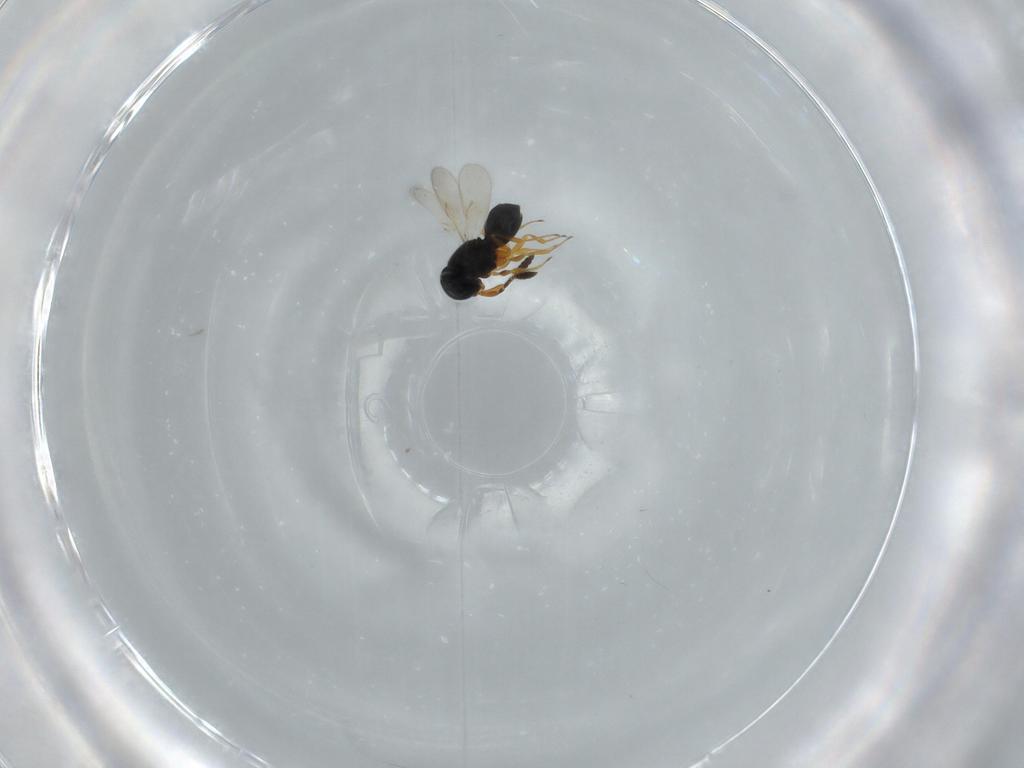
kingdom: Animalia
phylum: Arthropoda
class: Insecta
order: Hymenoptera
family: Scelionidae
